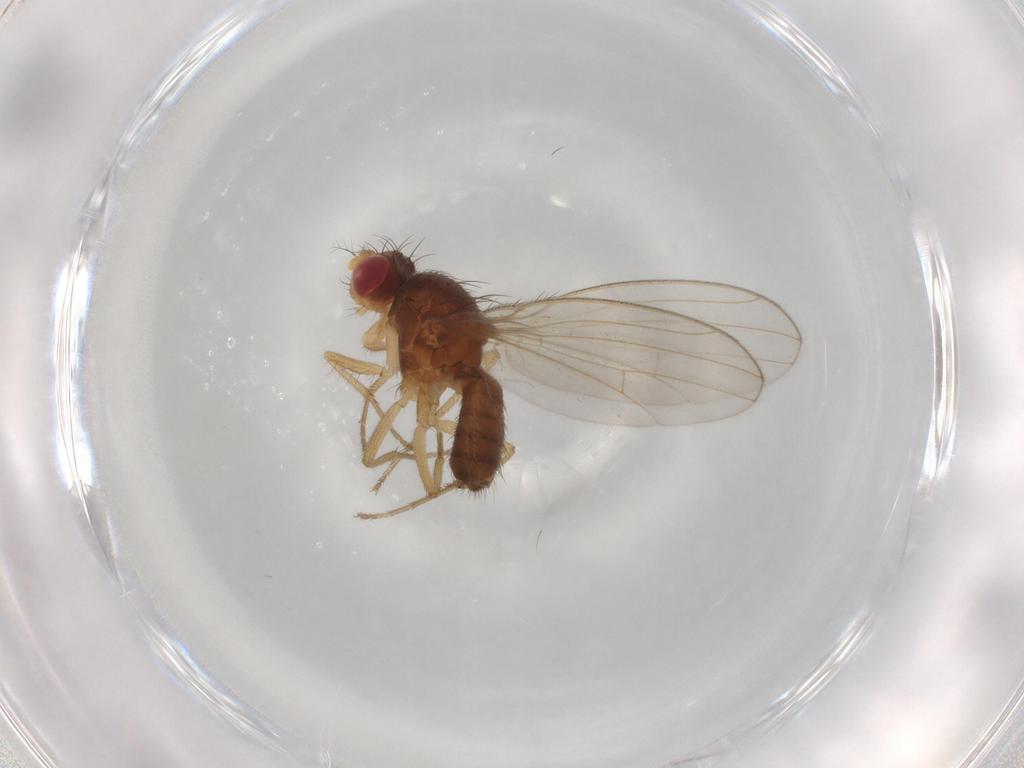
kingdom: Animalia
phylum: Arthropoda
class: Insecta
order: Diptera
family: Drosophilidae
